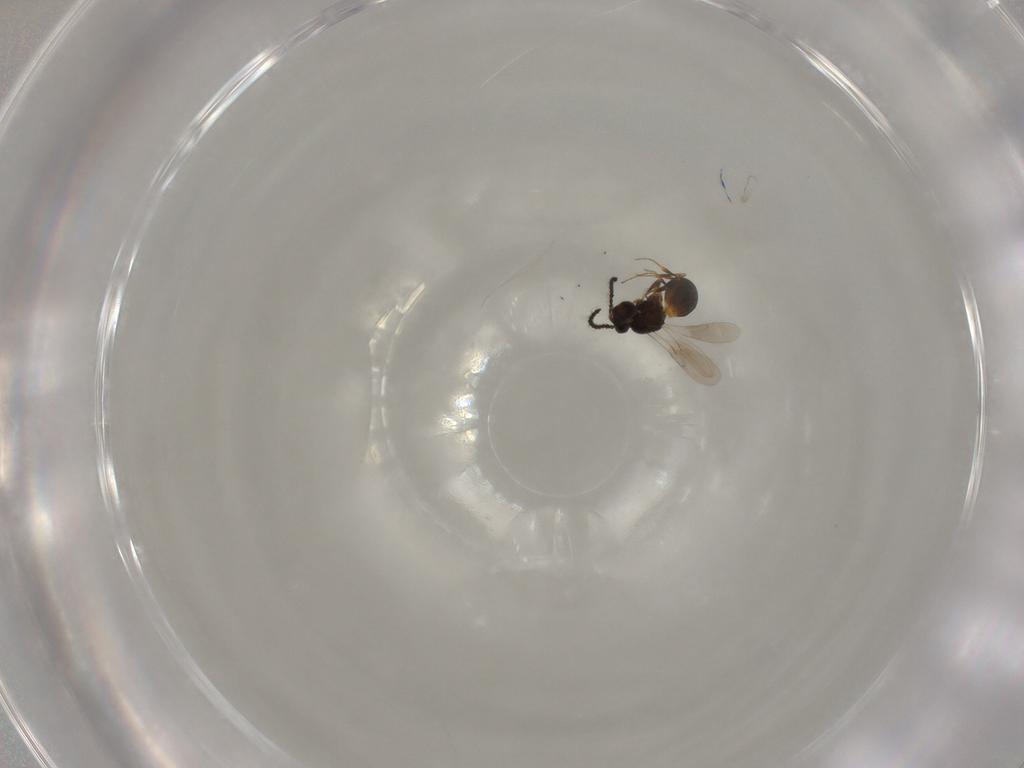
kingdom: Animalia
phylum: Arthropoda
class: Insecta
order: Hymenoptera
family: Scelionidae
